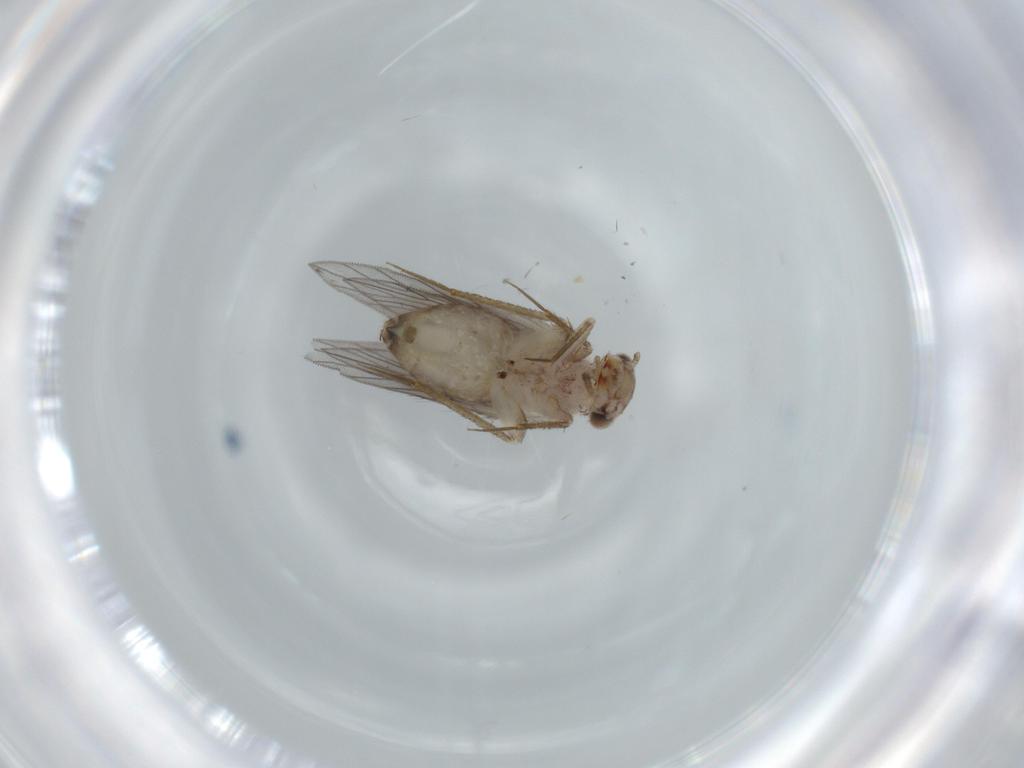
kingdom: Animalia
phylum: Arthropoda
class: Insecta
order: Psocodea
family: Lepidopsocidae
